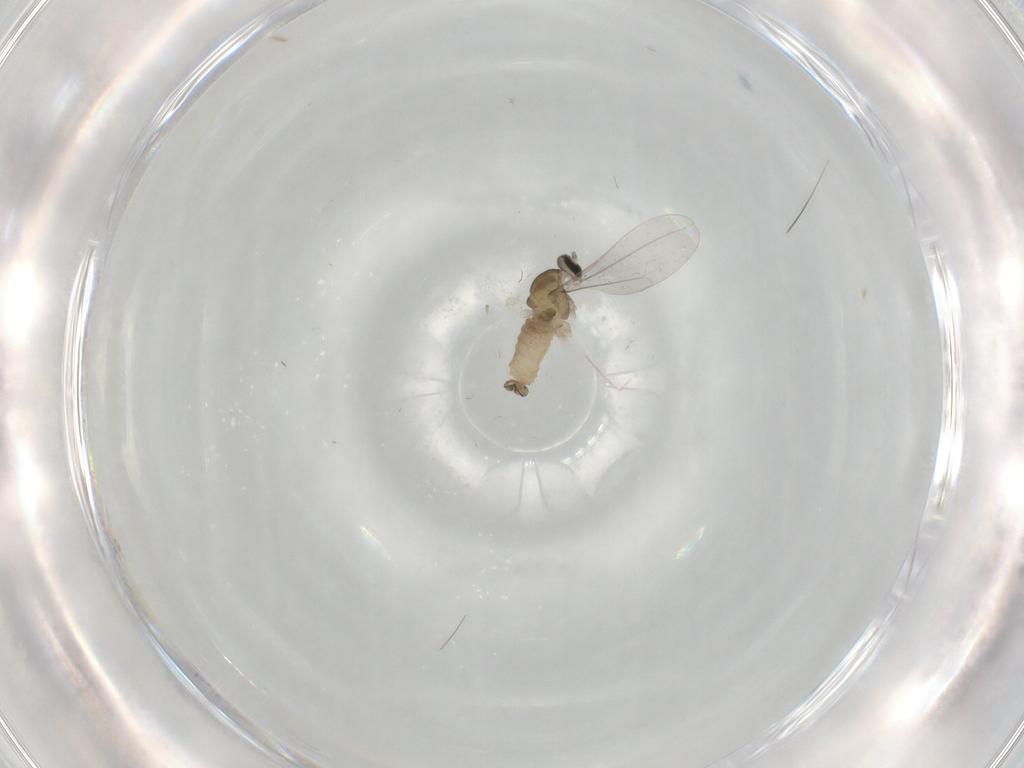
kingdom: Animalia
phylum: Arthropoda
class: Insecta
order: Diptera
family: Cecidomyiidae
